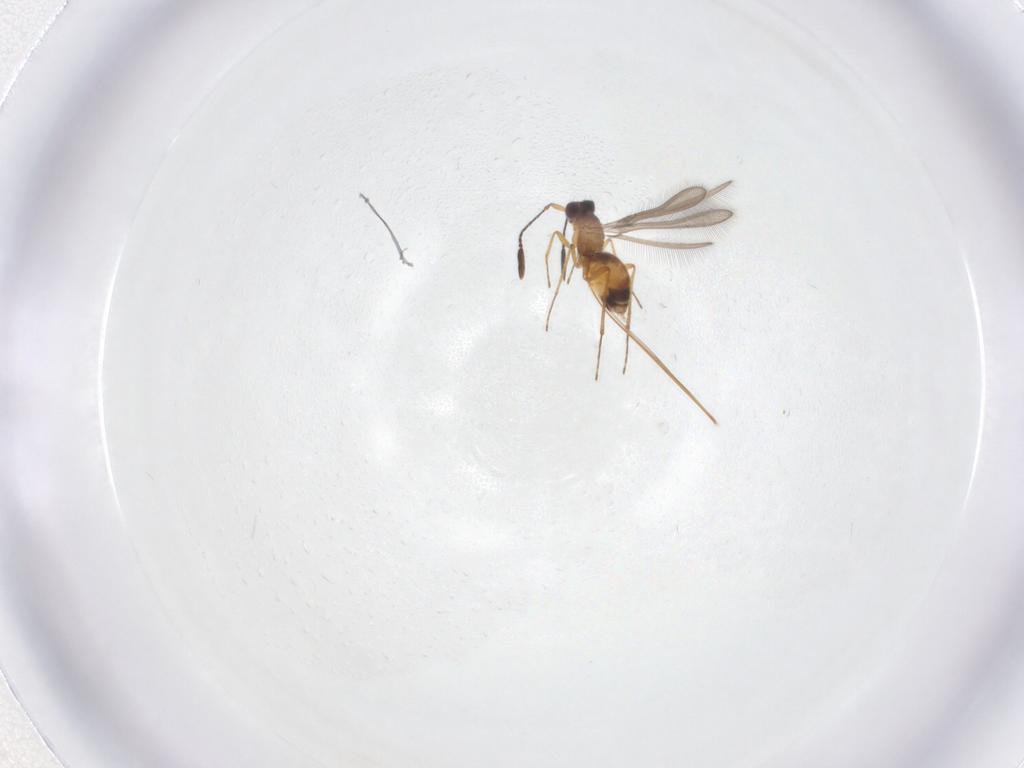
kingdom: Animalia
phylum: Arthropoda
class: Insecta
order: Hymenoptera
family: Mymaridae
